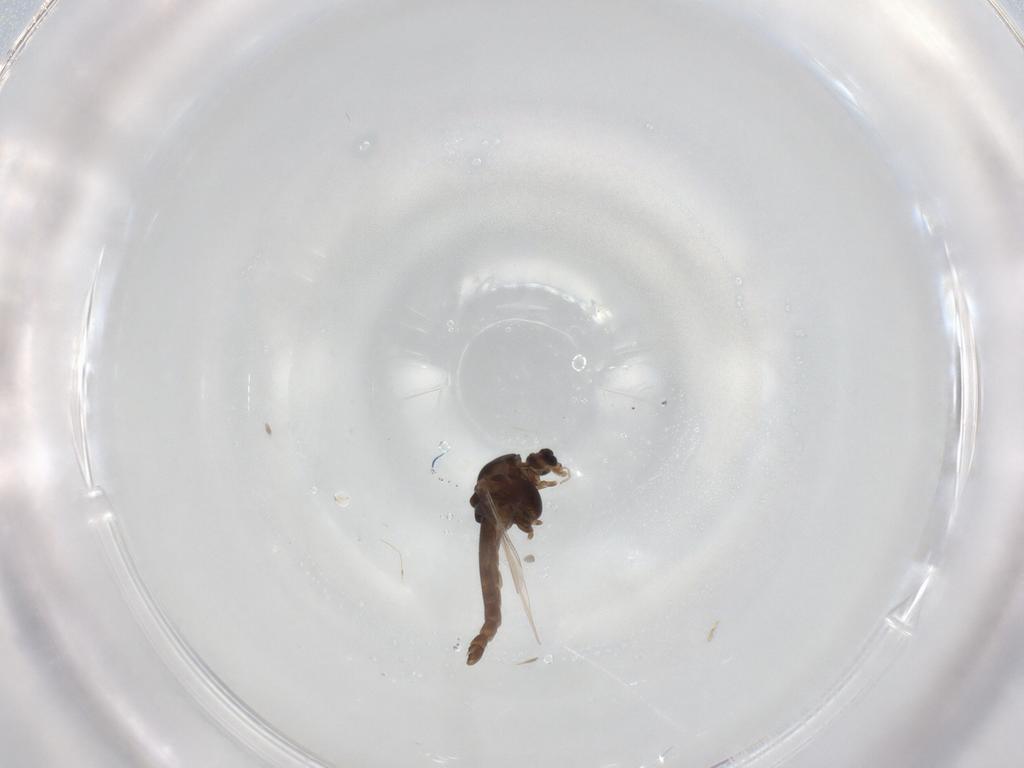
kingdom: Animalia
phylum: Arthropoda
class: Insecta
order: Diptera
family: Chironomidae
